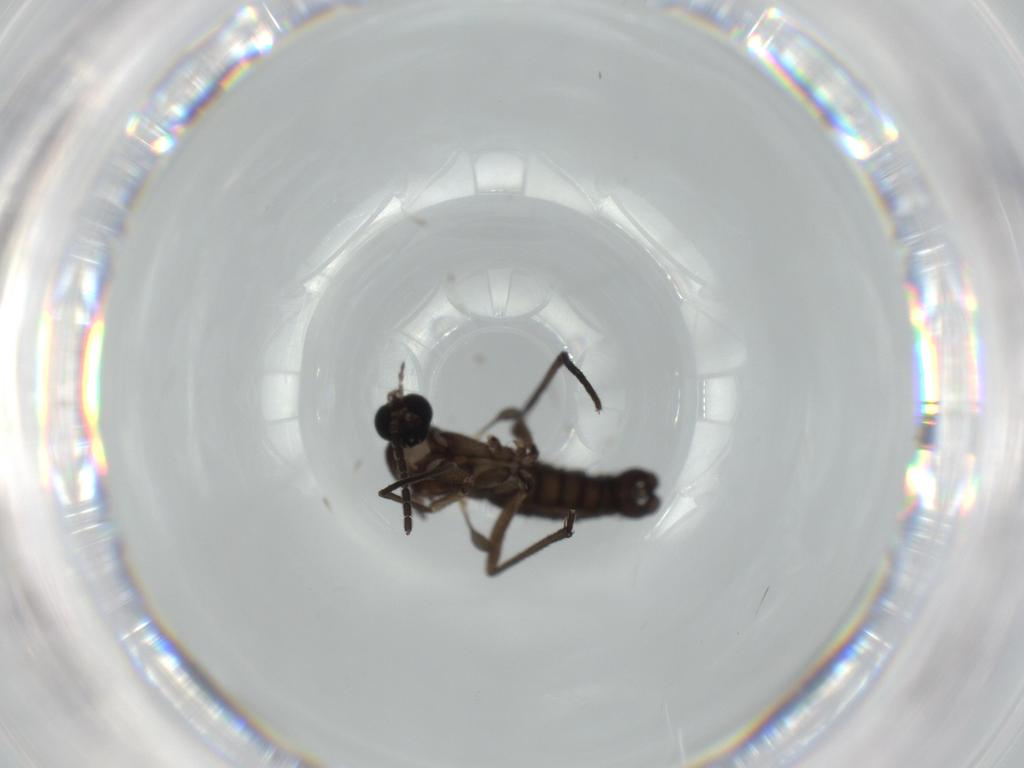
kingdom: Animalia
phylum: Arthropoda
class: Insecta
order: Diptera
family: Sciaridae
